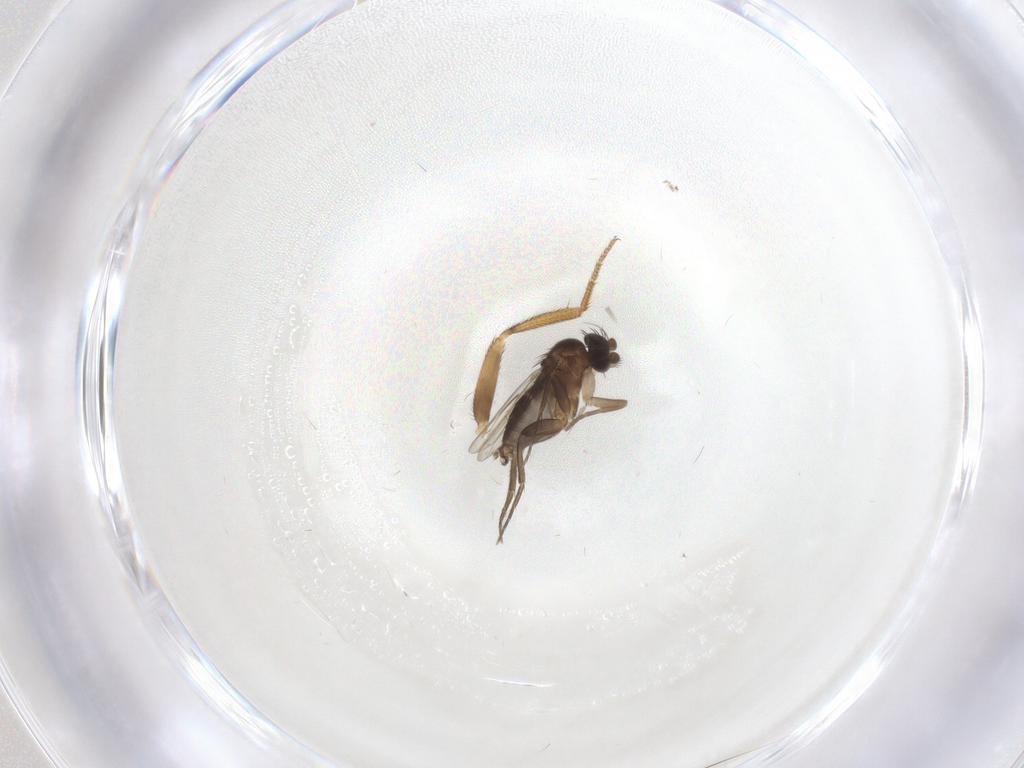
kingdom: Animalia
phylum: Arthropoda
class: Insecta
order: Diptera
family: Phoridae
